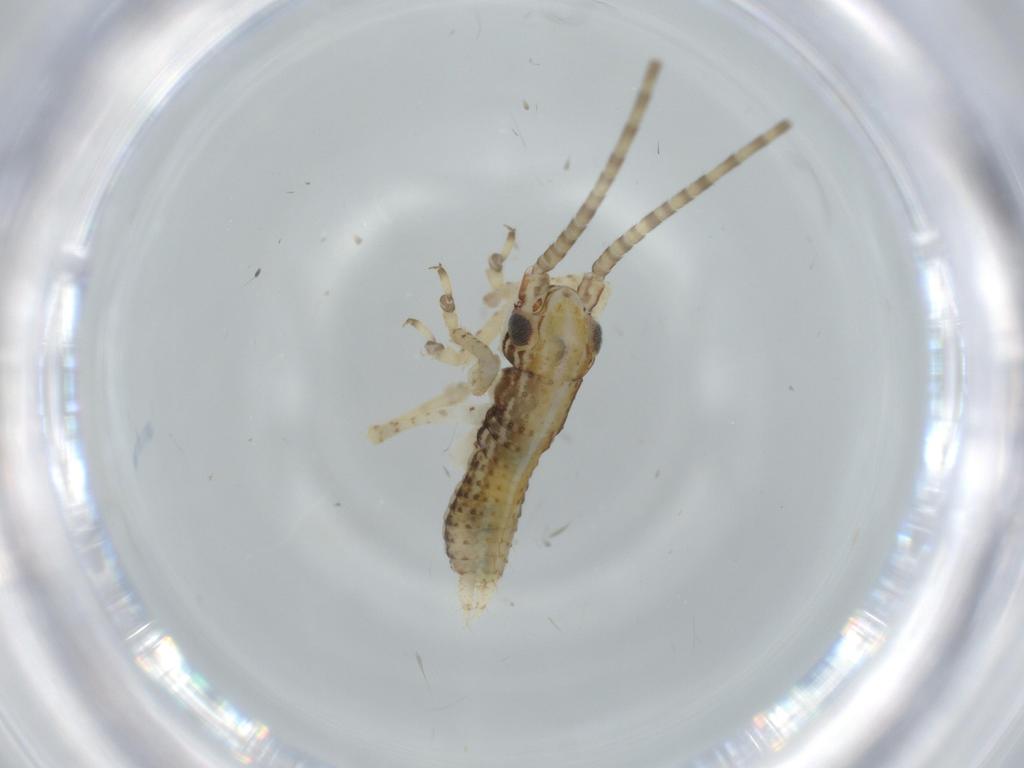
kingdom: Animalia
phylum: Arthropoda
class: Insecta
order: Orthoptera
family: Gryllidae
